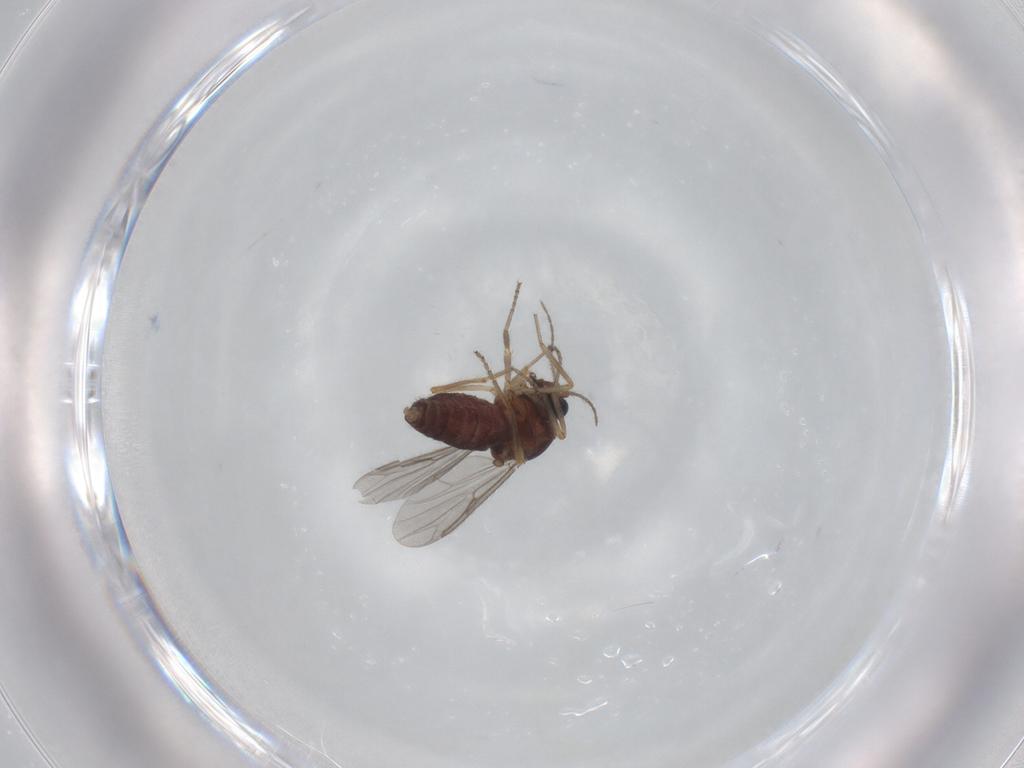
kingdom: Animalia
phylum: Arthropoda
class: Insecta
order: Diptera
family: Ceratopogonidae
